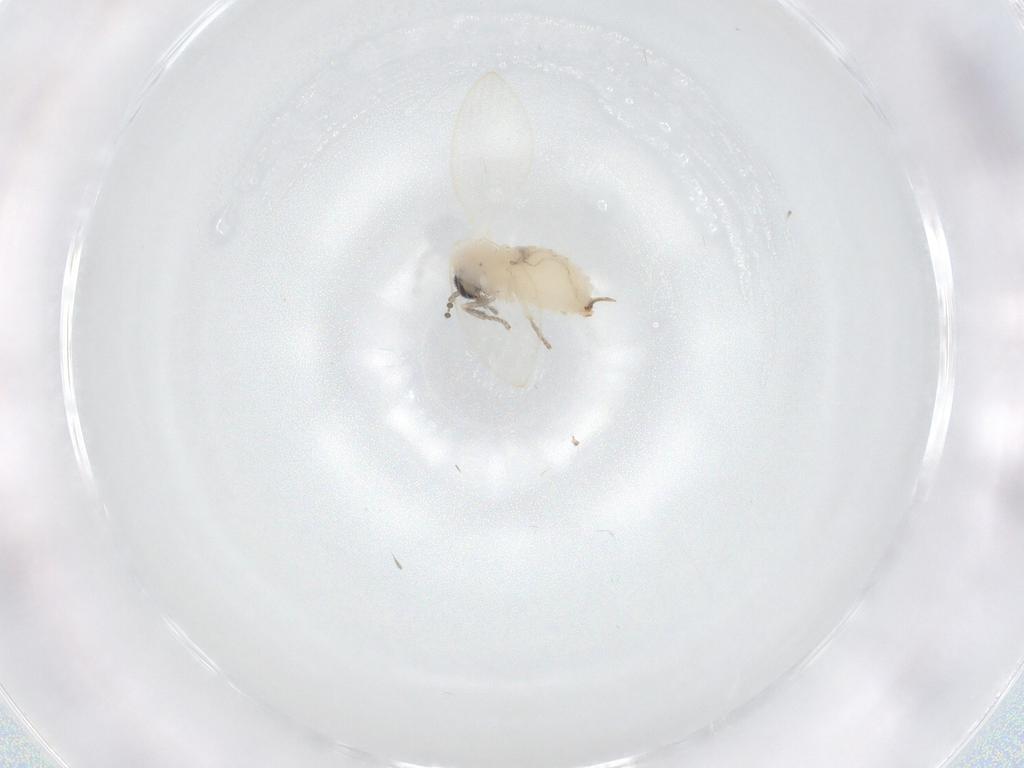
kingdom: Animalia
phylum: Arthropoda
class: Insecta
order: Diptera
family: Psychodidae
